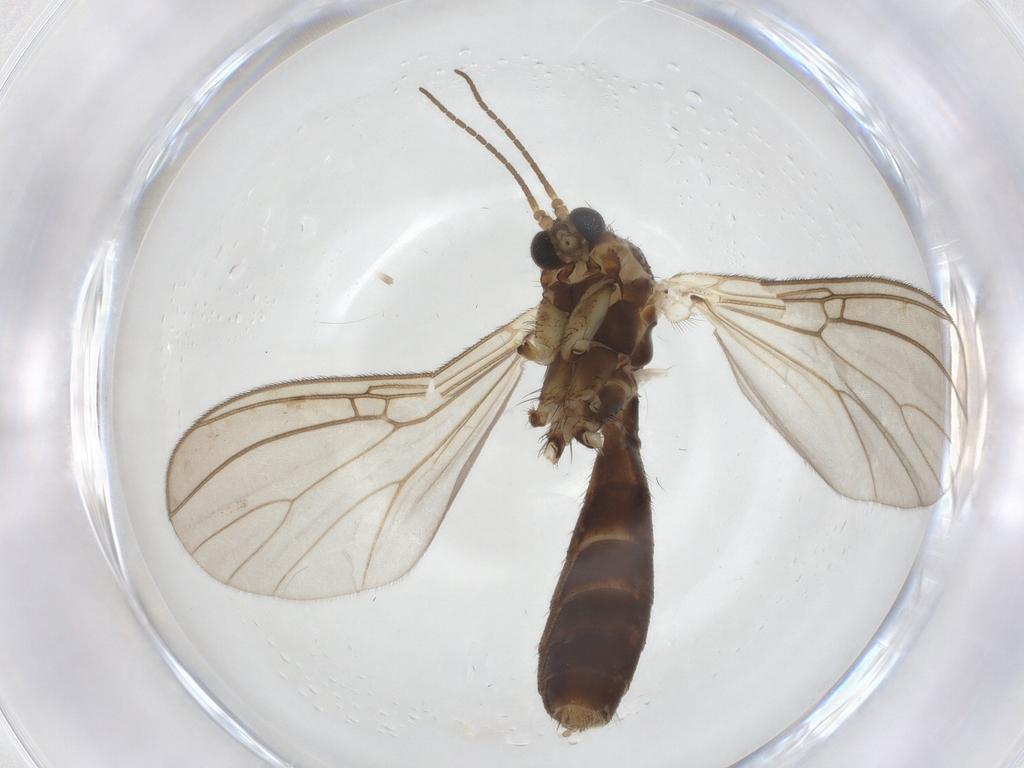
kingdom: Animalia
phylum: Arthropoda
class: Insecta
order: Diptera
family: Mycetophilidae
